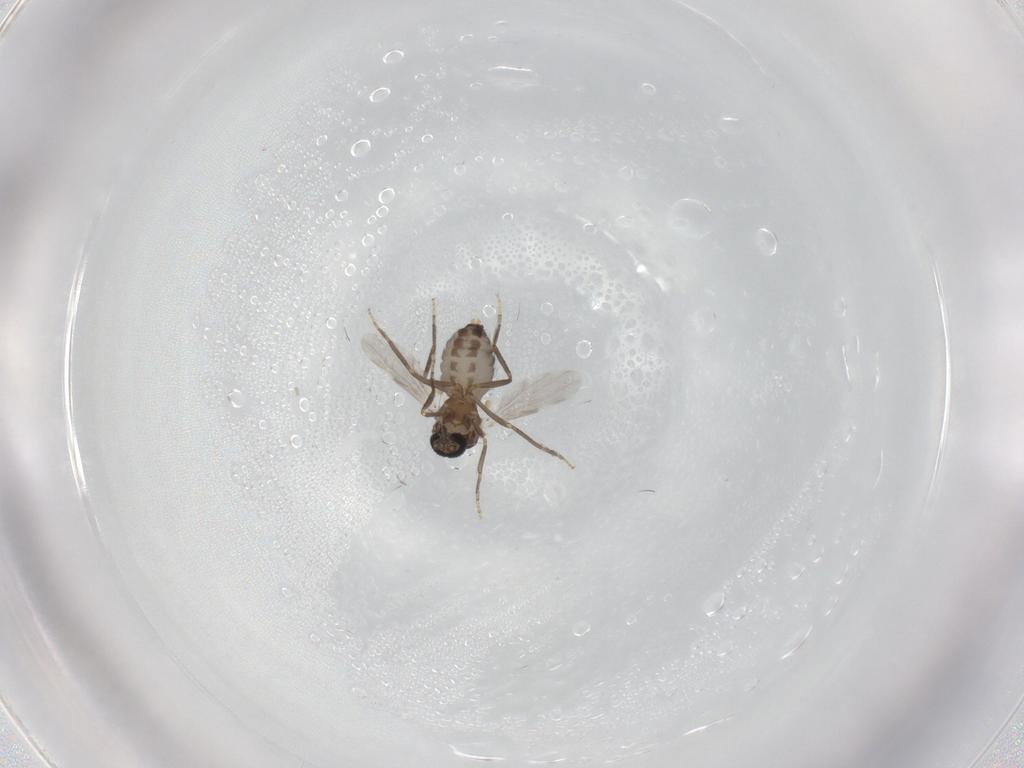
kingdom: Animalia
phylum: Arthropoda
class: Insecta
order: Diptera
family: Ceratopogonidae
